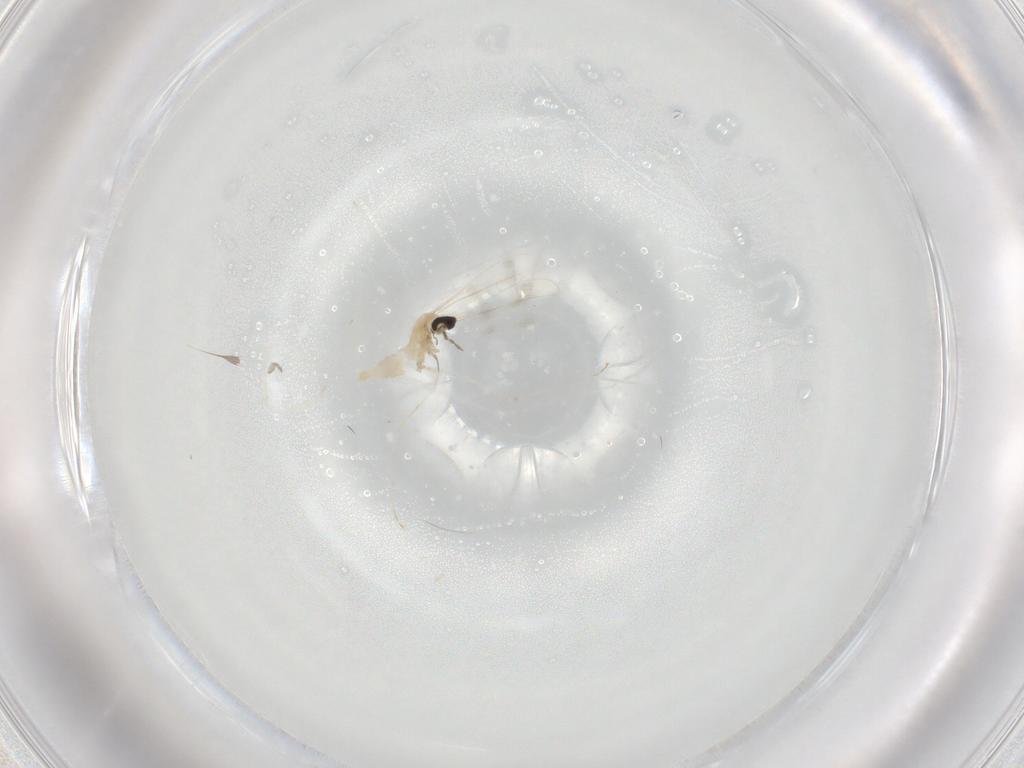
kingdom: Animalia
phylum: Arthropoda
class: Insecta
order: Diptera
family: Cecidomyiidae
